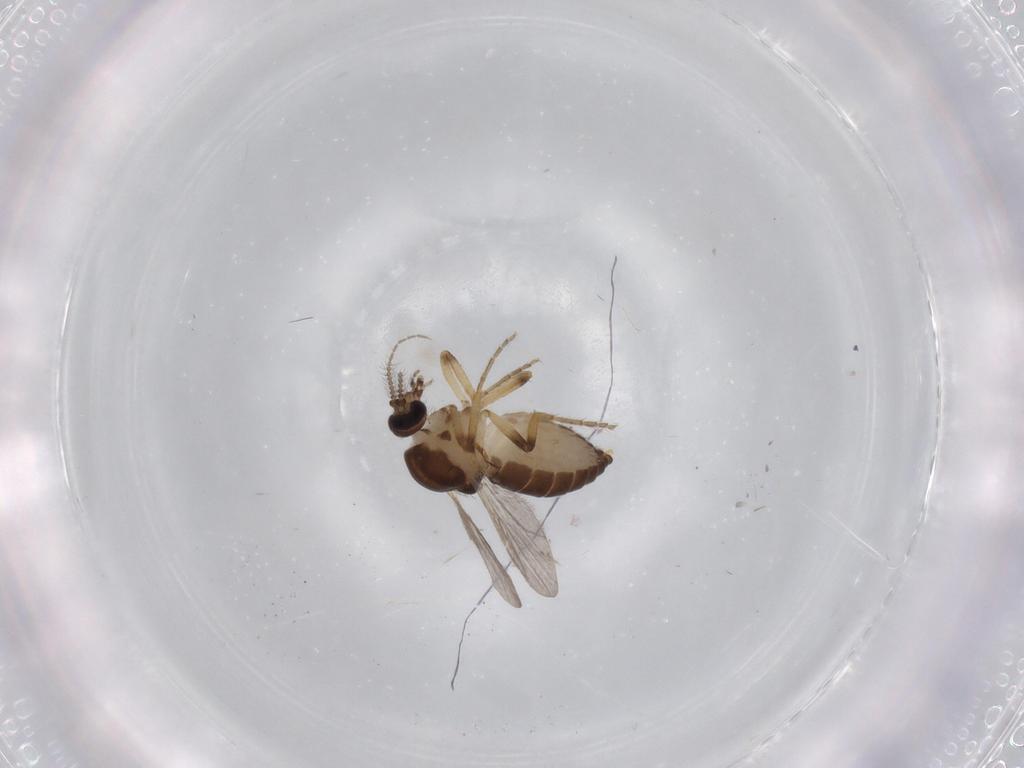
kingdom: Animalia
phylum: Arthropoda
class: Insecta
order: Diptera
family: Ceratopogonidae
